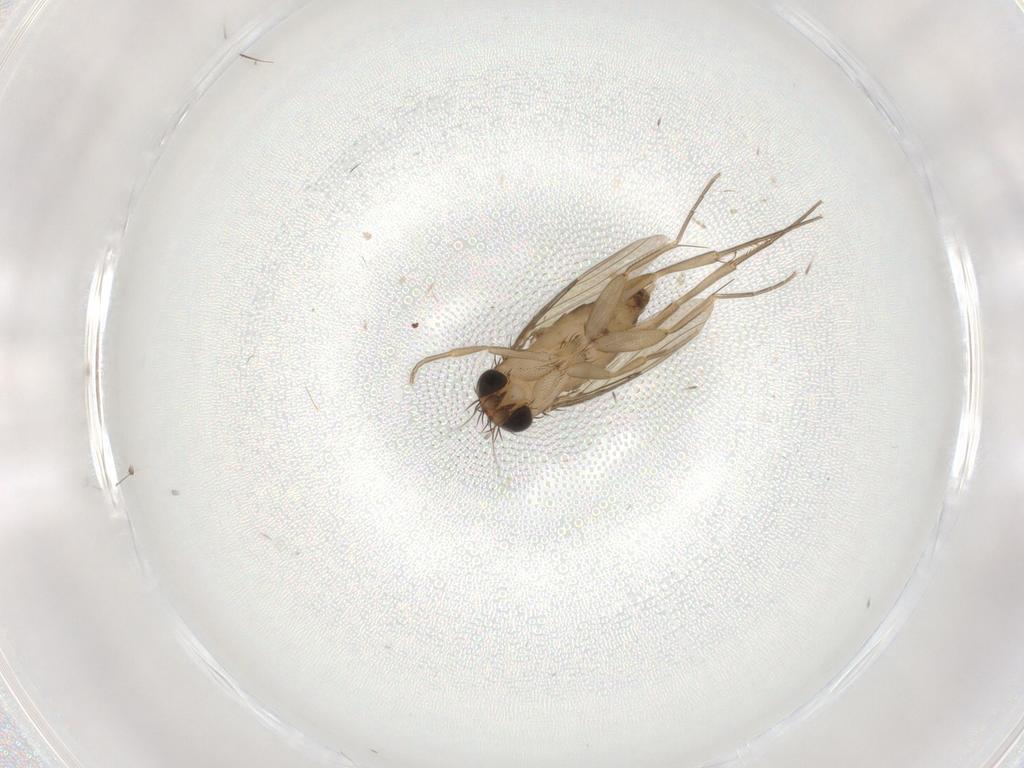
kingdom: Animalia
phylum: Arthropoda
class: Insecta
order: Diptera
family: Phoridae
